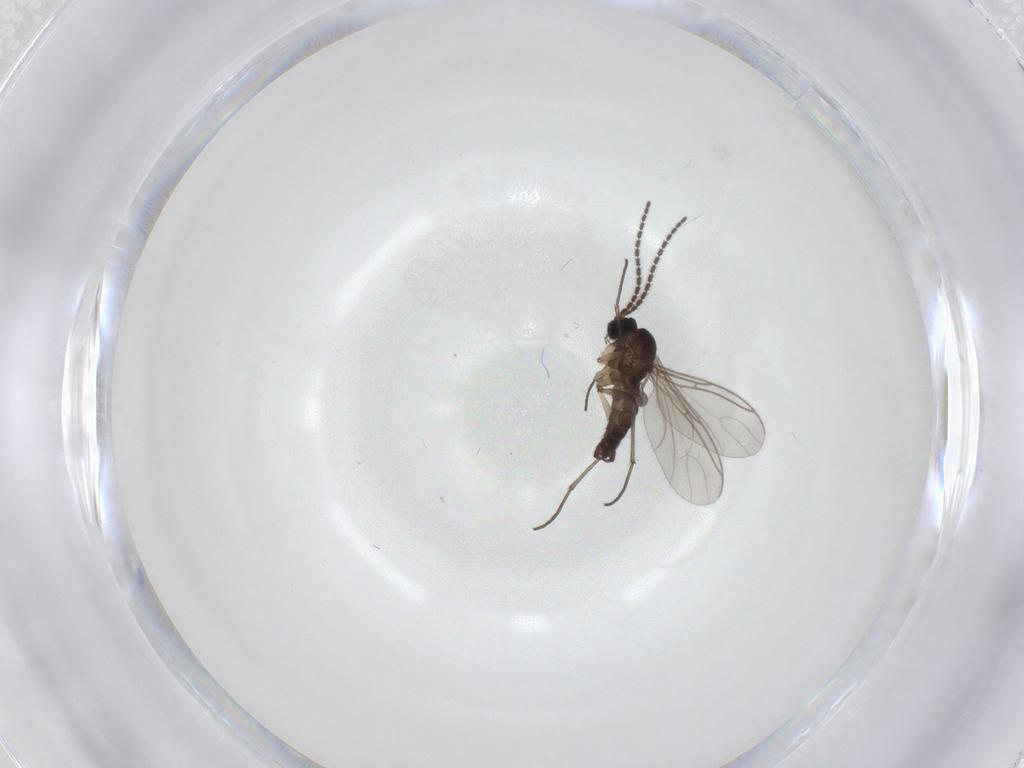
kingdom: Animalia
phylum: Arthropoda
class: Insecta
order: Diptera
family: Sciaridae
